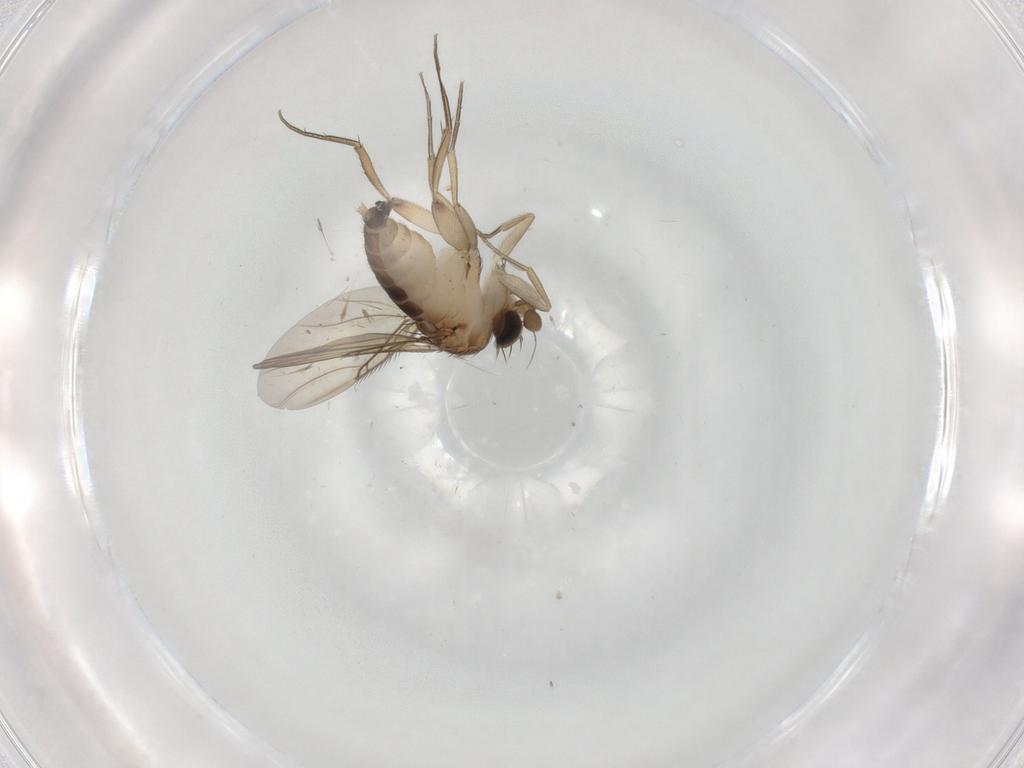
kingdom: Animalia
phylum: Arthropoda
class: Insecta
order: Diptera
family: Phoridae
